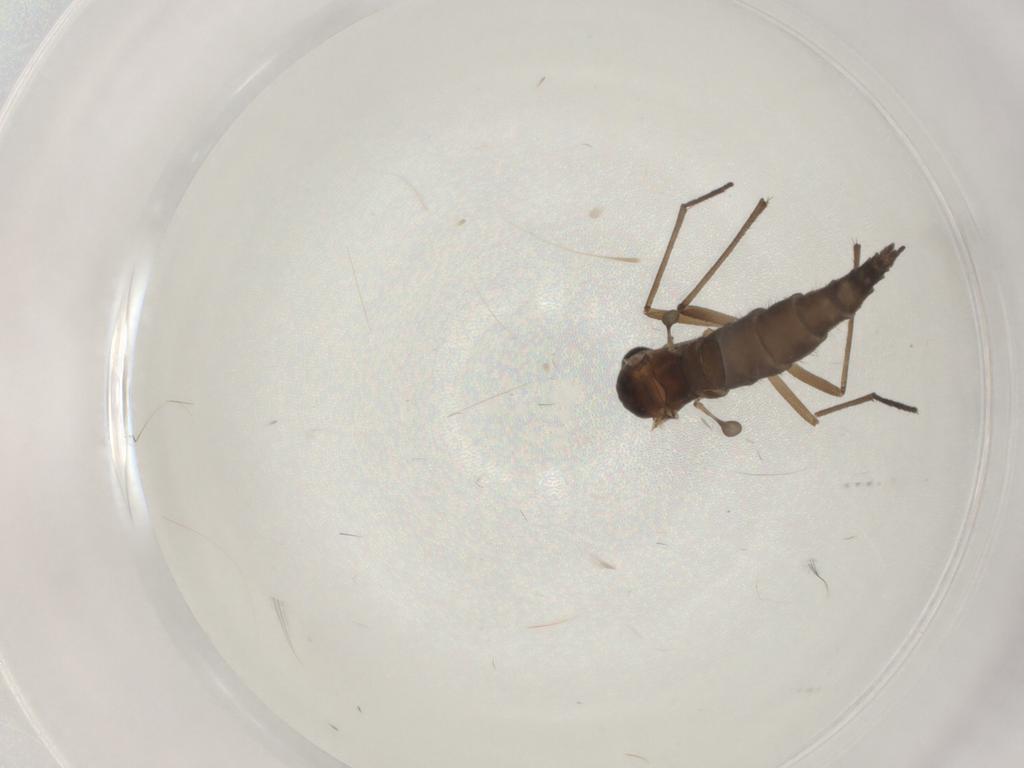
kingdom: Animalia
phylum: Arthropoda
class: Insecta
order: Diptera
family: Sciaridae
